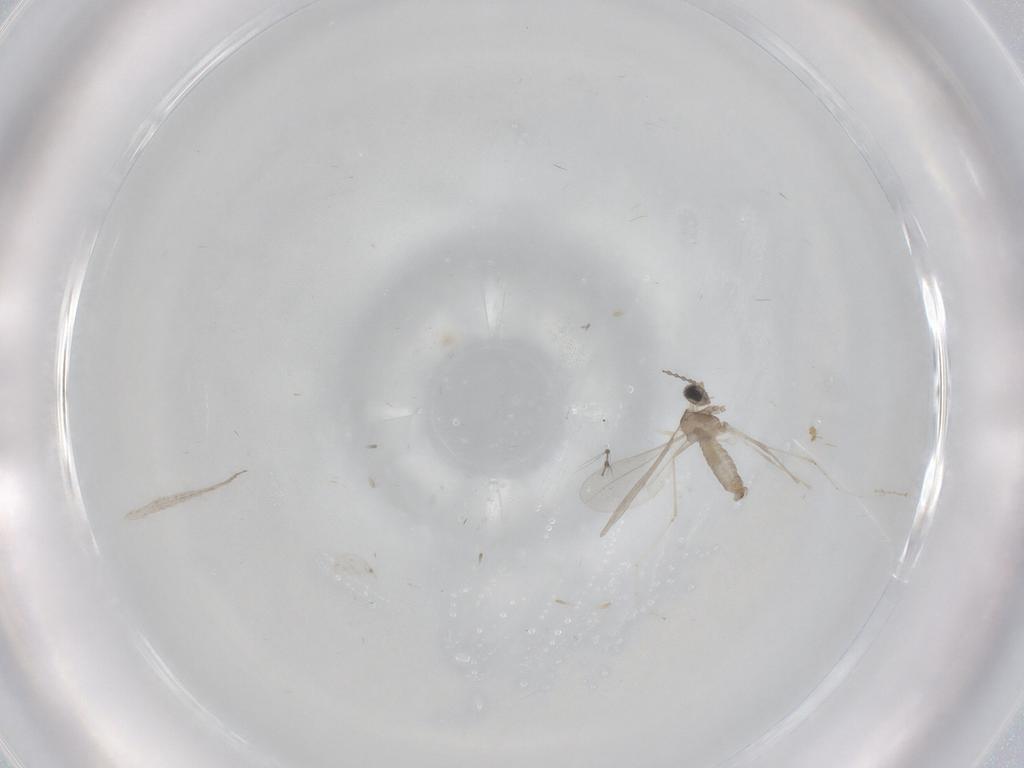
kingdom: Animalia
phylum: Arthropoda
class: Insecta
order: Diptera
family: Cecidomyiidae
